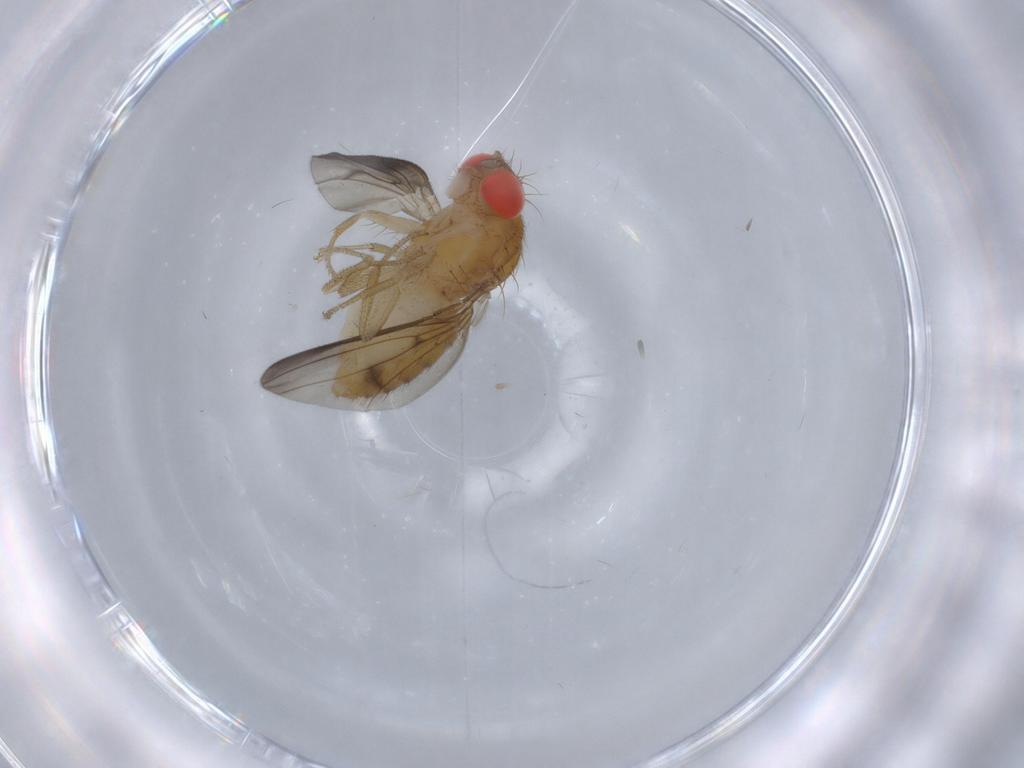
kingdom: Animalia
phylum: Arthropoda
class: Insecta
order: Diptera
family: Drosophilidae
